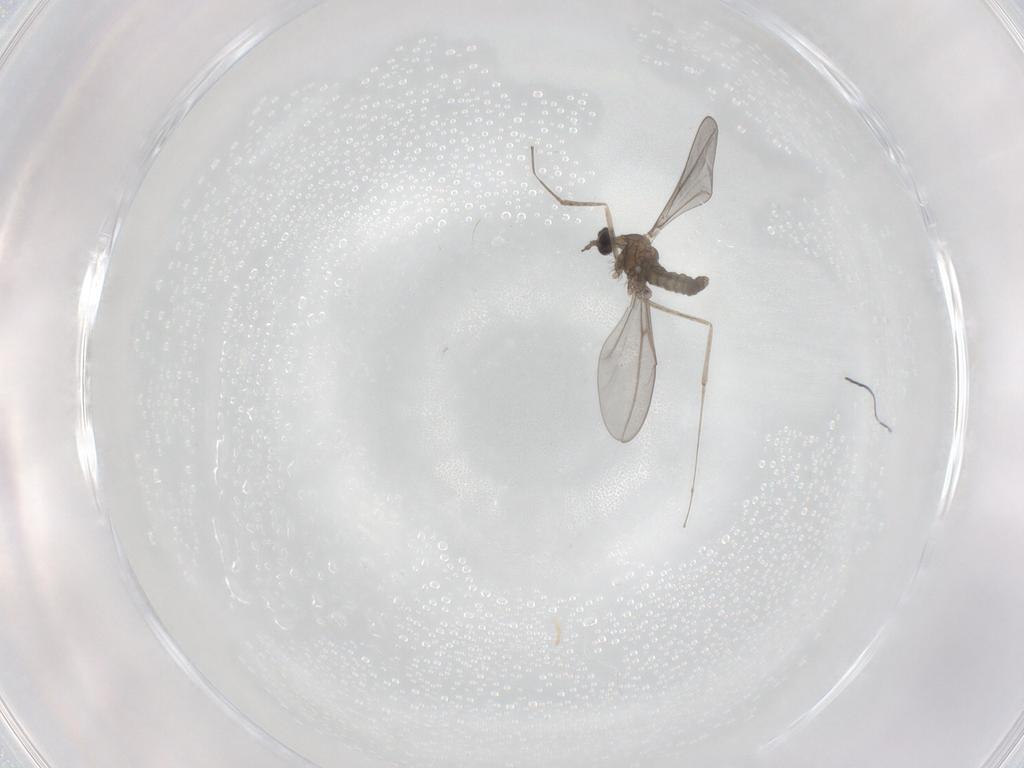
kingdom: Animalia
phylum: Arthropoda
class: Insecta
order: Diptera
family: Cecidomyiidae
